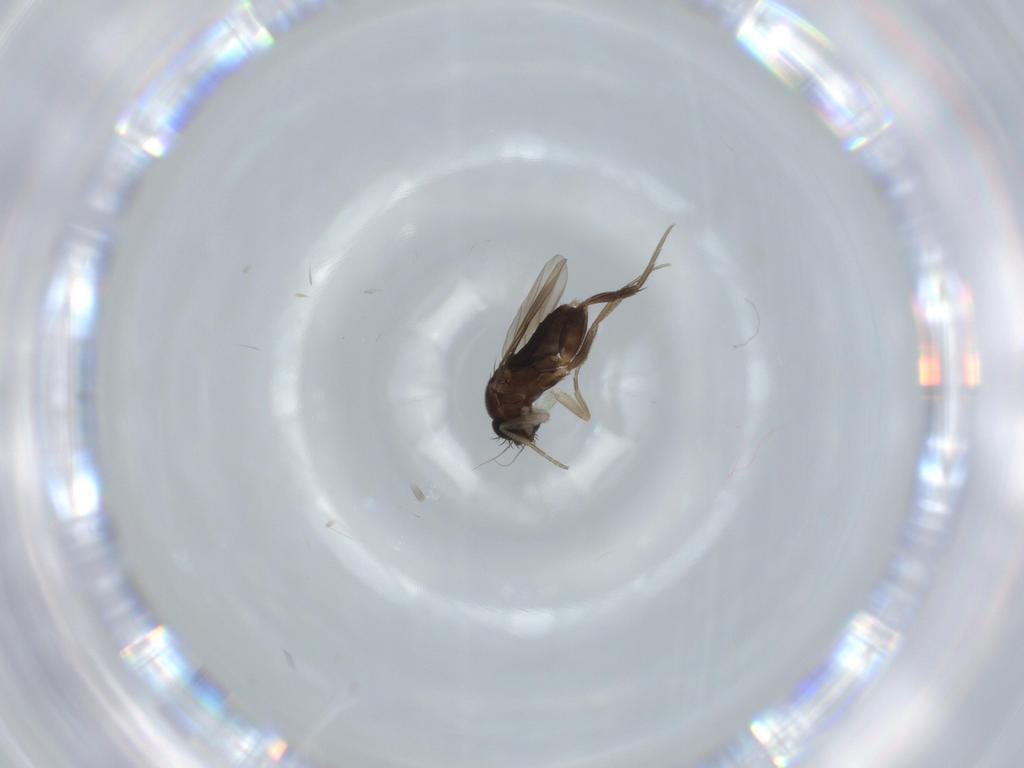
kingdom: Animalia
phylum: Arthropoda
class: Insecta
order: Diptera
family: Phoridae
